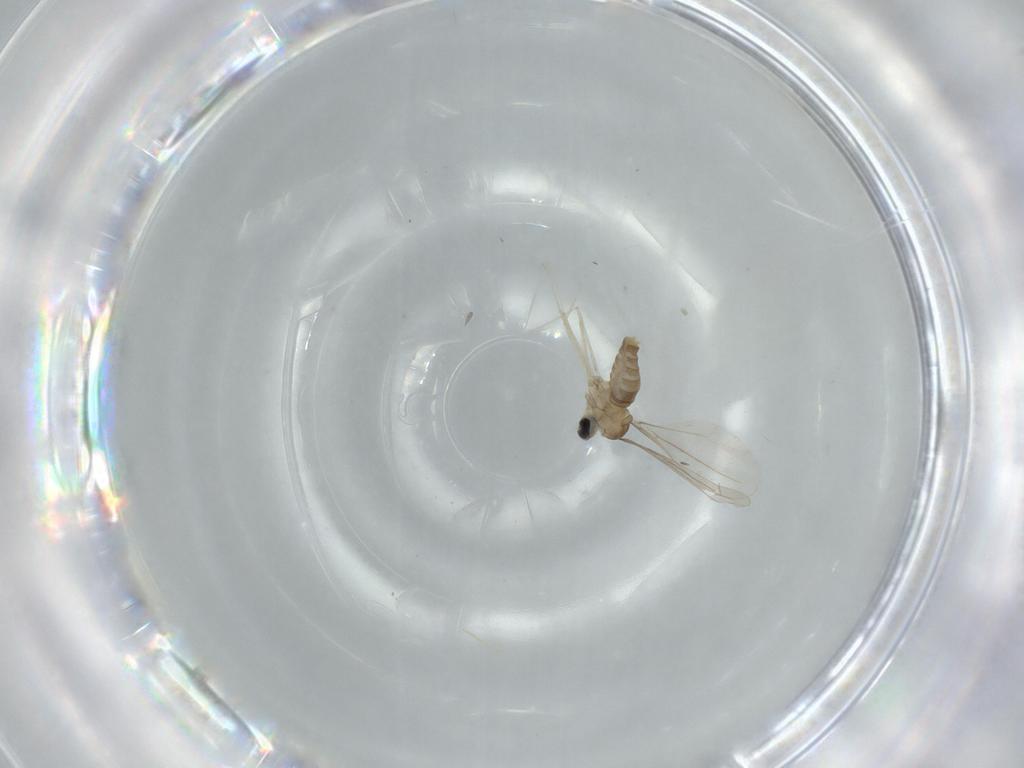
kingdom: Animalia
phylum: Arthropoda
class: Insecta
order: Diptera
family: Cecidomyiidae
